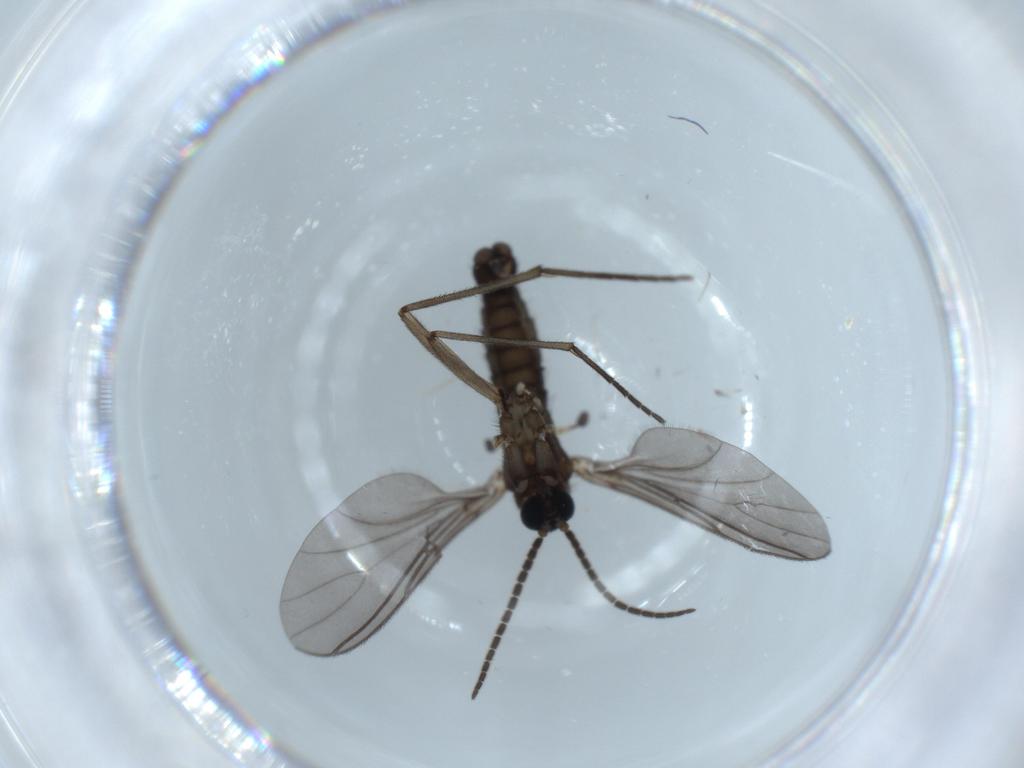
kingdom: Animalia
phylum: Arthropoda
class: Insecta
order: Diptera
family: Sciaridae
